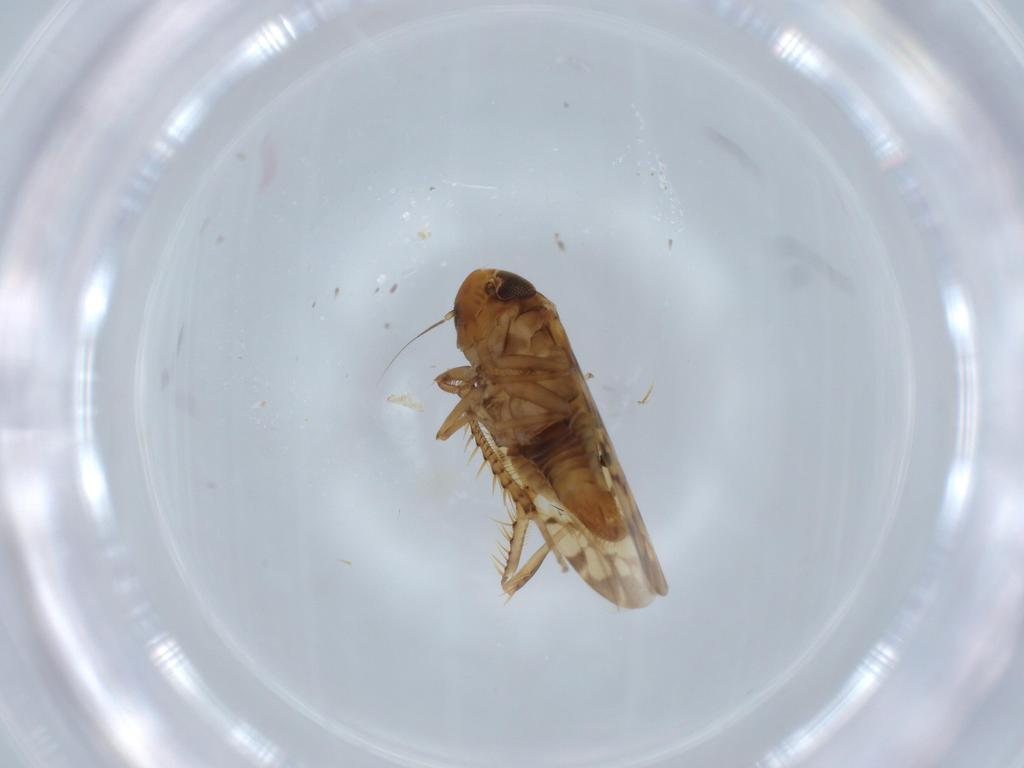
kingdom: Animalia
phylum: Arthropoda
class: Insecta
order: Hemiptera
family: Cicadellidae
